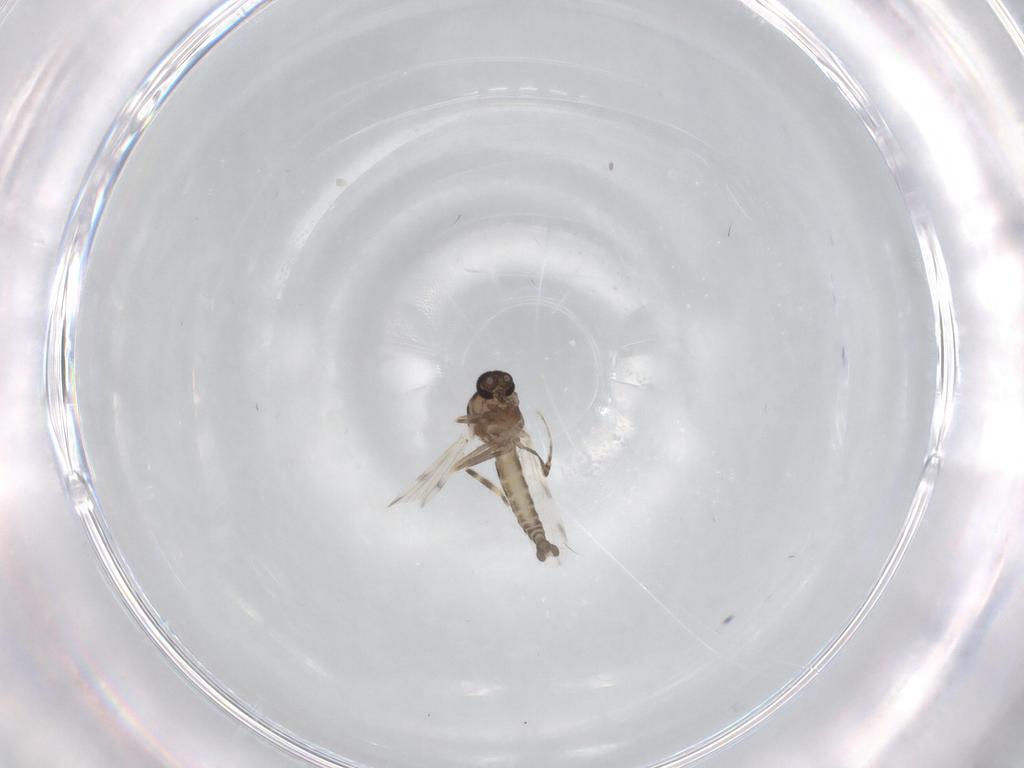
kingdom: Animalia
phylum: Arthropoda
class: Insecta
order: Diptera
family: Ceratopogonidae
